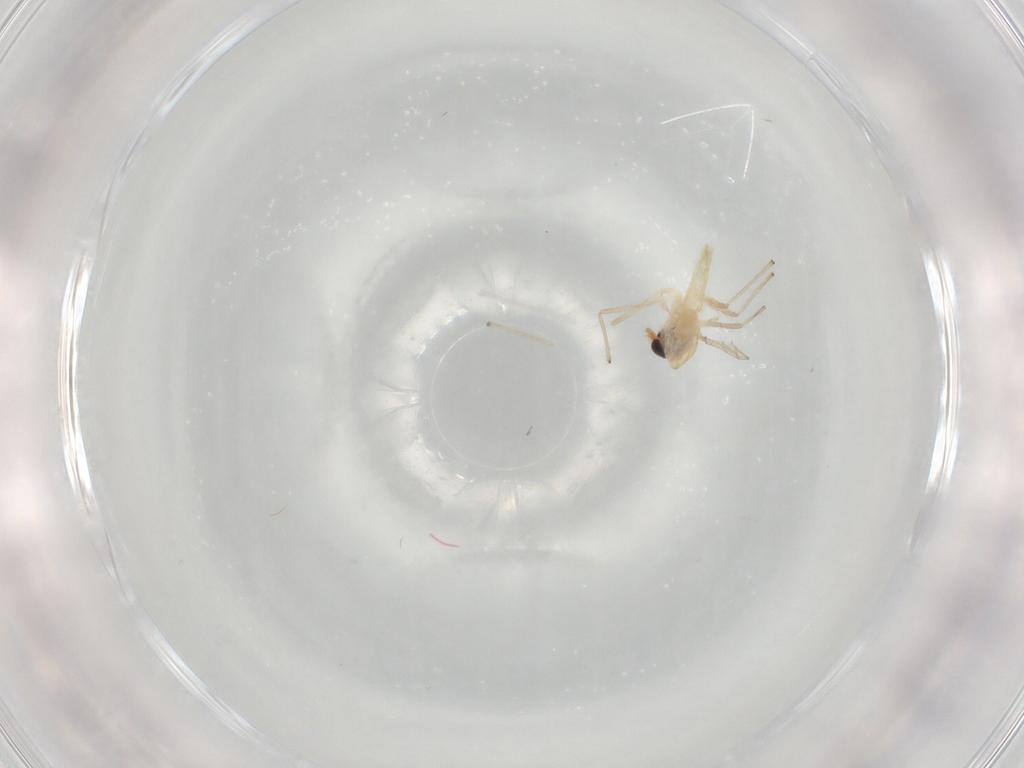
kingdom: Animalia
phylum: Arthropoda
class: Insecta
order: Diptera
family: Chironomidae
